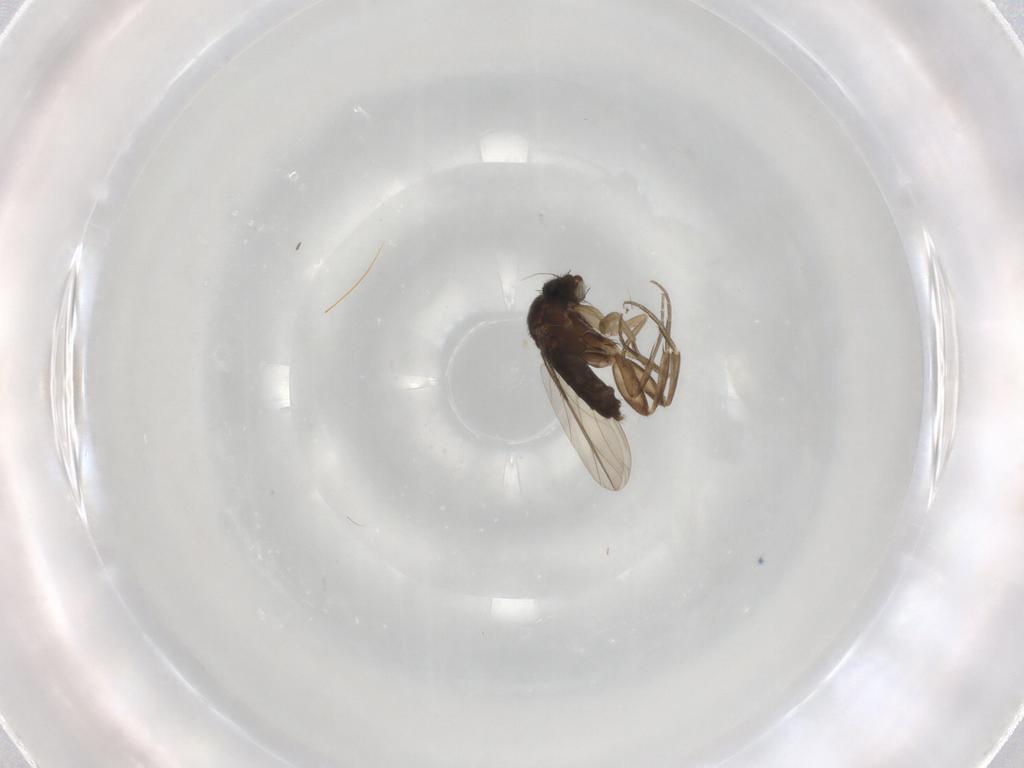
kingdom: Animalia
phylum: Arthropoda
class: Insecta
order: Diptera
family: Phoridae
